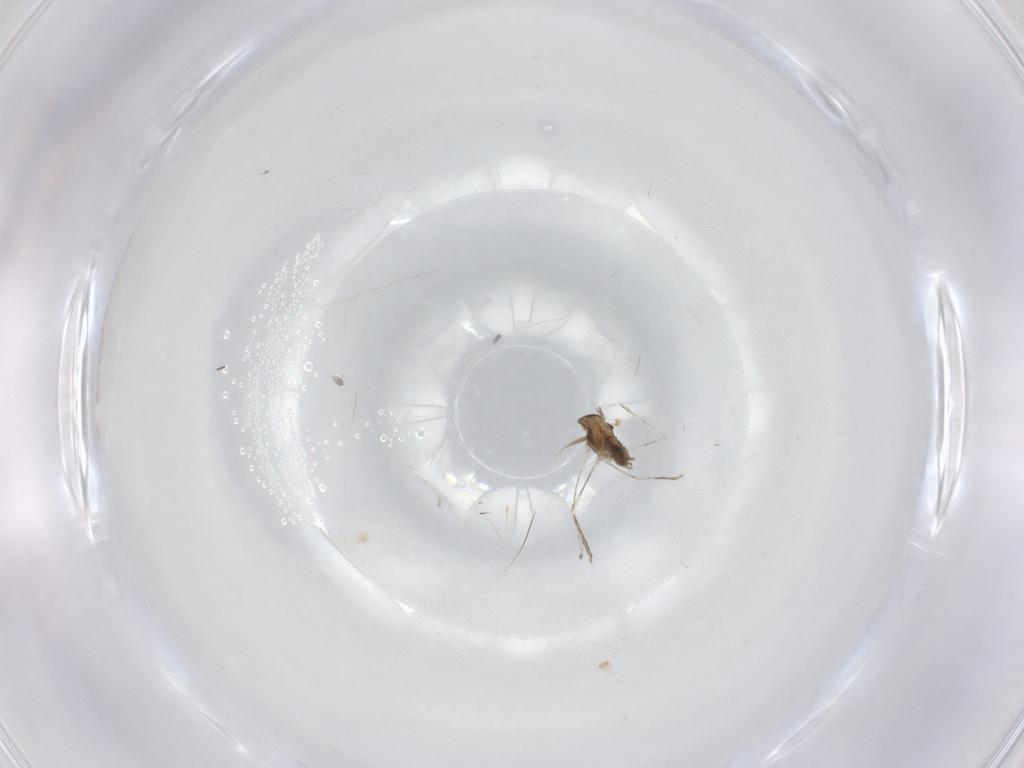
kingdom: Animalia
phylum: Arthropoda
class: Insecta
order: Diptera
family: Cecidomyiidae
